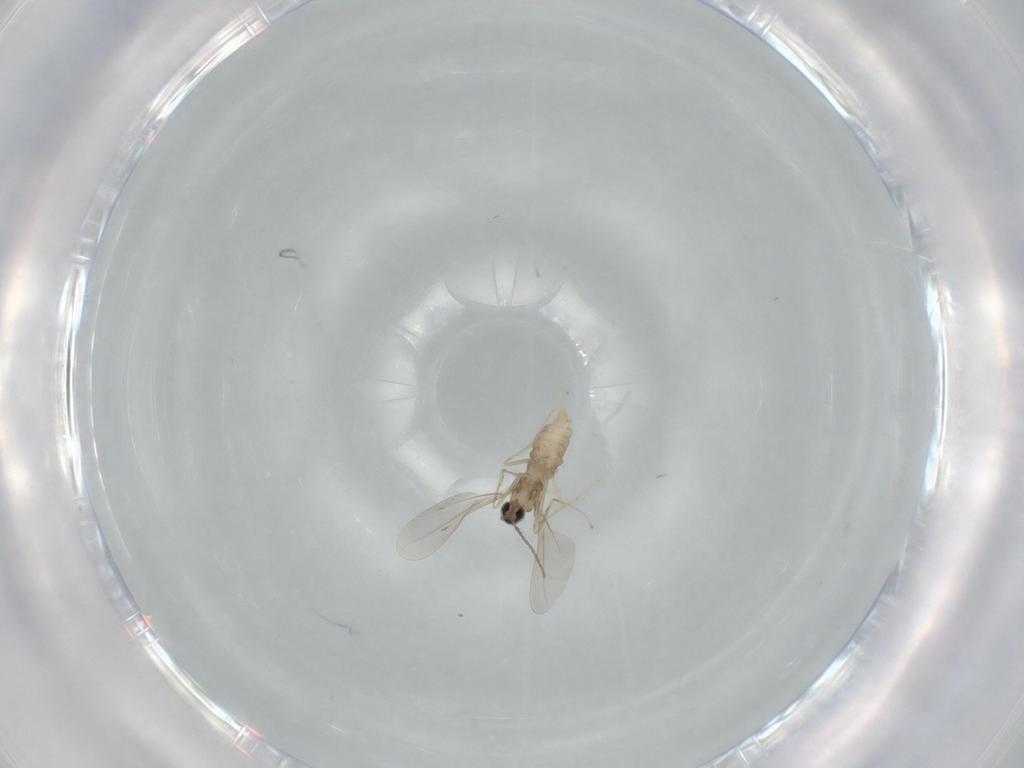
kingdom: Animalia
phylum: Arthropoda
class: Insecta
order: Diptera
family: Cecidomyiidae
